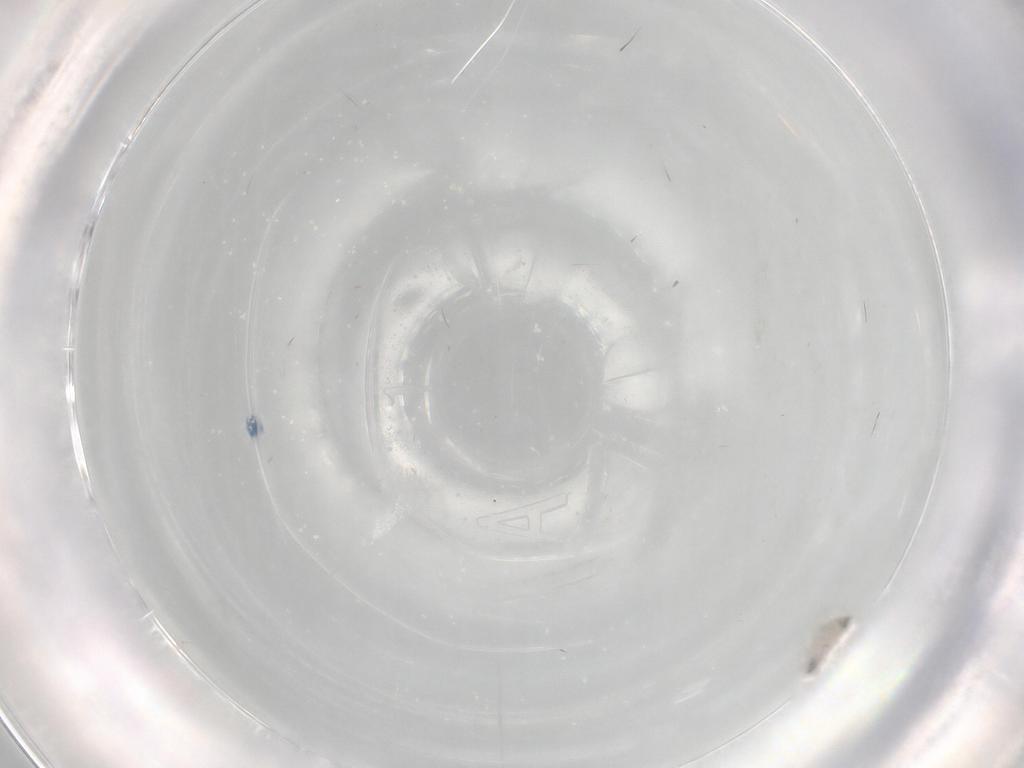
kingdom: Animalia
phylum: Arthropoda
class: Insecta
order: Diptera
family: Cecidomyiidae
